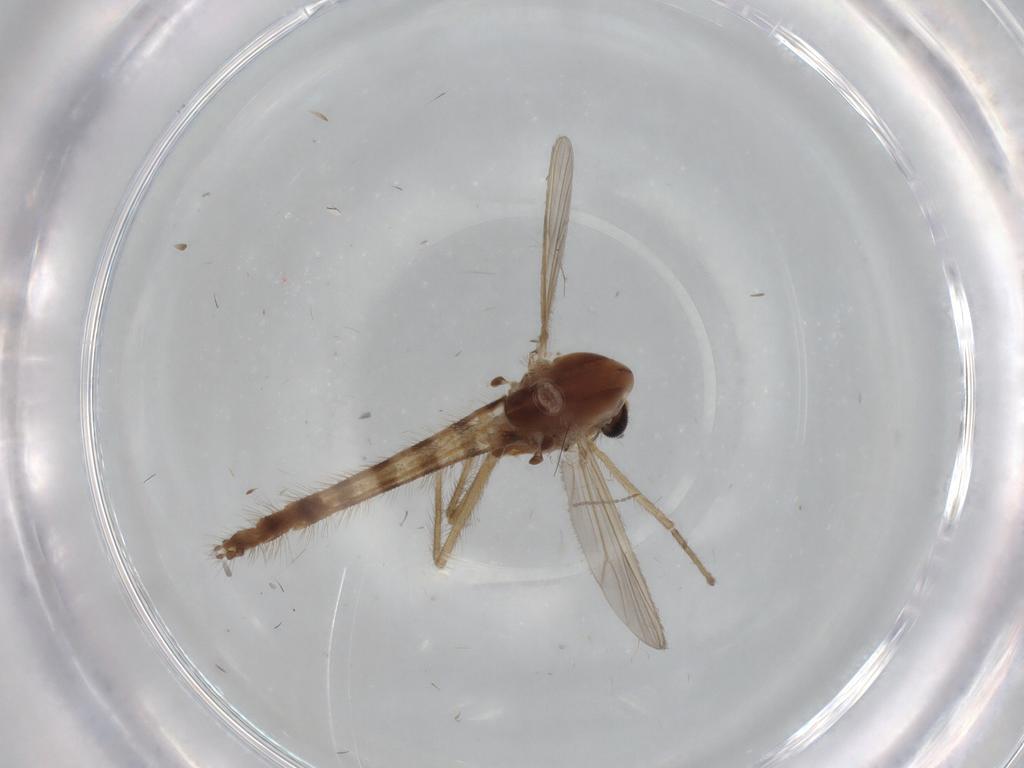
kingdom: Animalia
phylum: Arthropoda
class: Insecta
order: Diptera
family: Chironomidae
